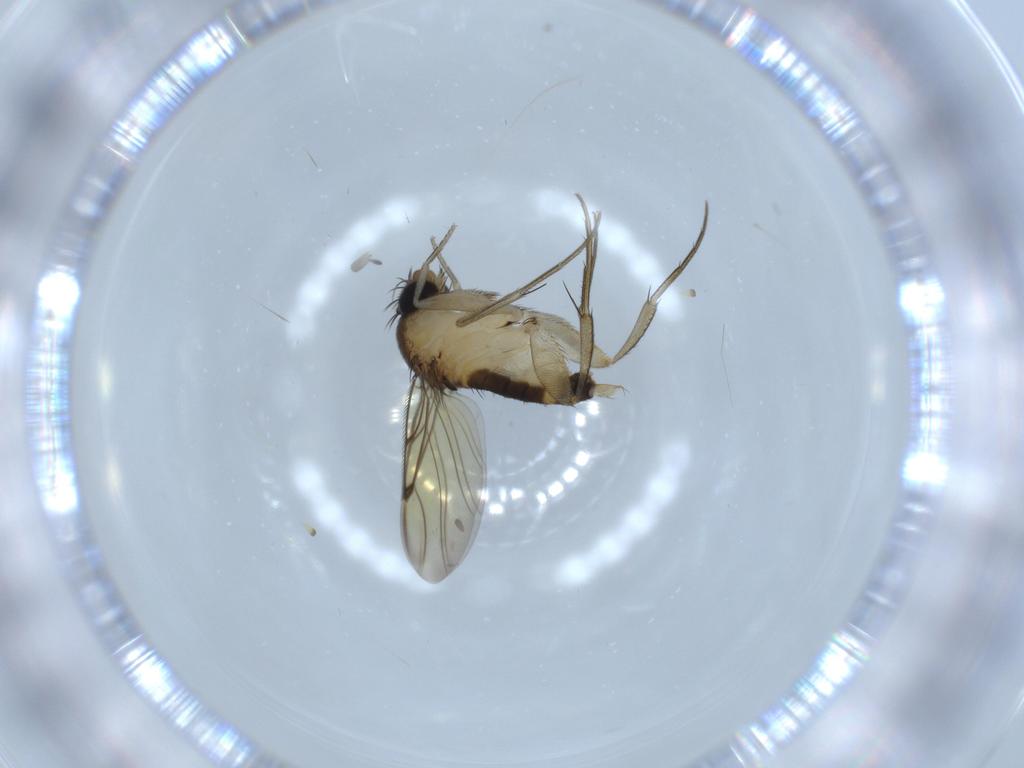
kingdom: Animalia
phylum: Arthropoda
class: Insecta
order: Diptera
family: Phoridae
